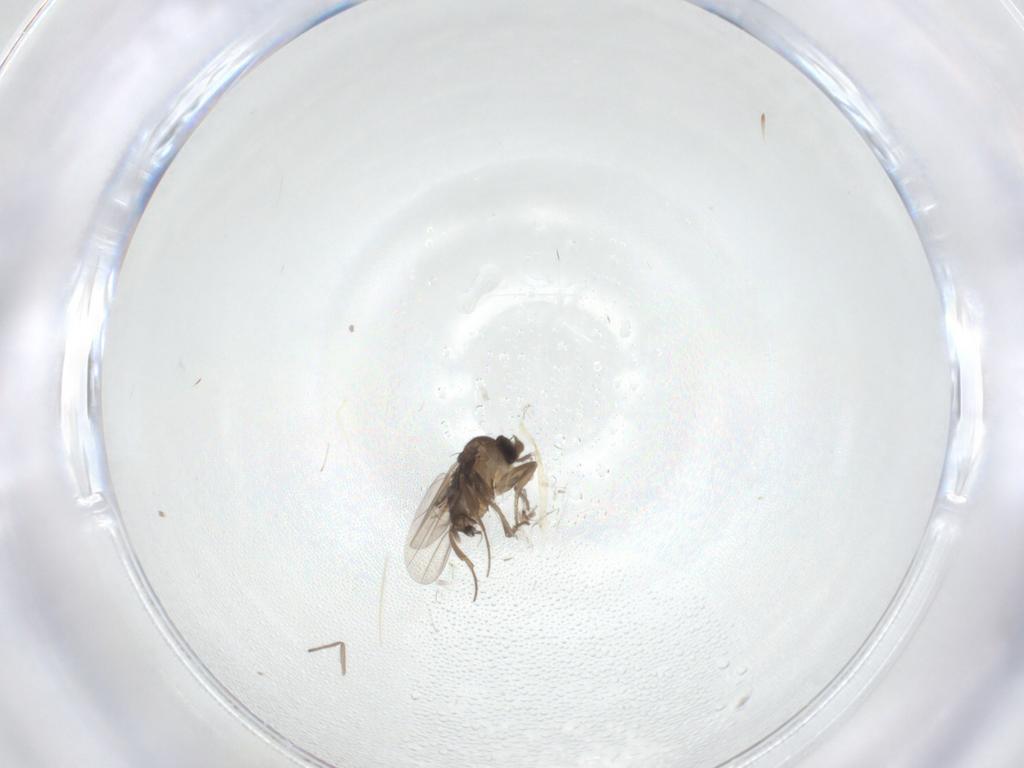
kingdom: Animalia
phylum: Arthropoda
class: Insecta
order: Diptera
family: Phoridae
